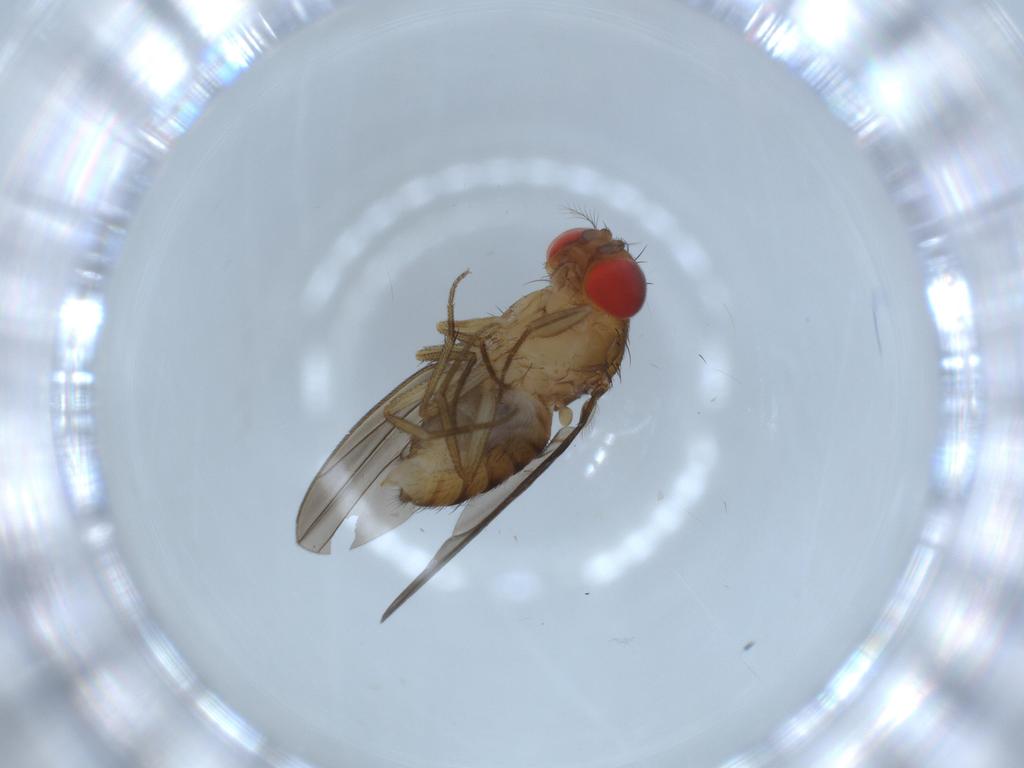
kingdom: Animalia
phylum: Arthropoda
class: Insecta
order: Diptera
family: Drosophilidae
